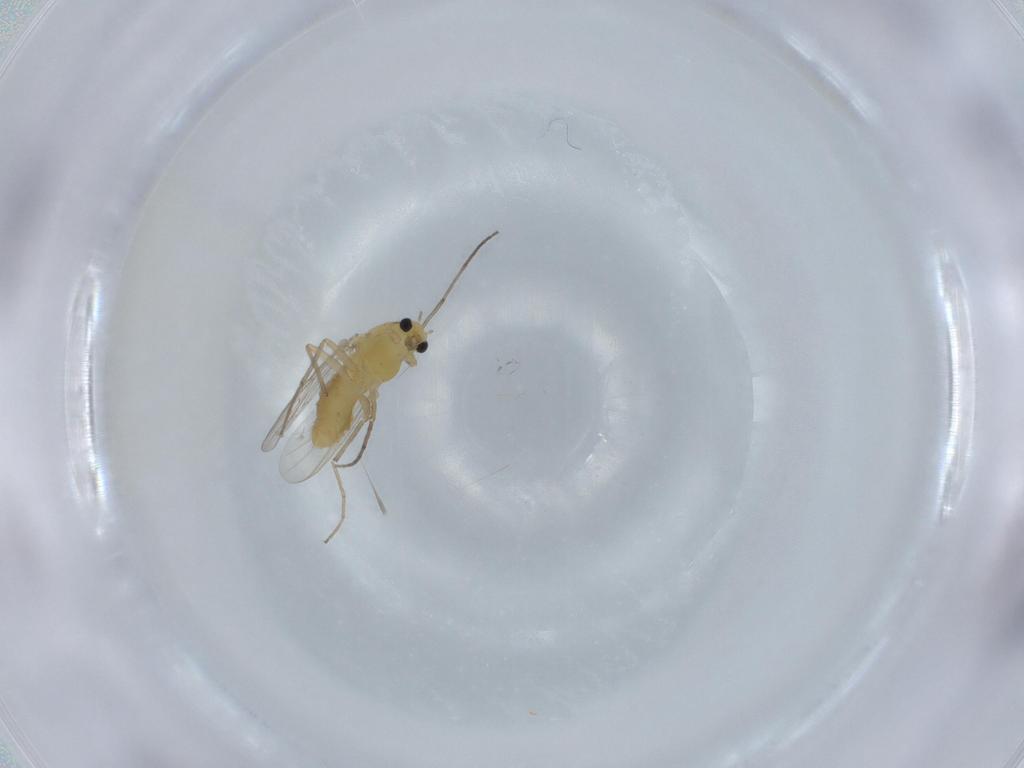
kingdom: Animalia
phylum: Arthropoda
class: Insecta
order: Diptera
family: Chironomidae
